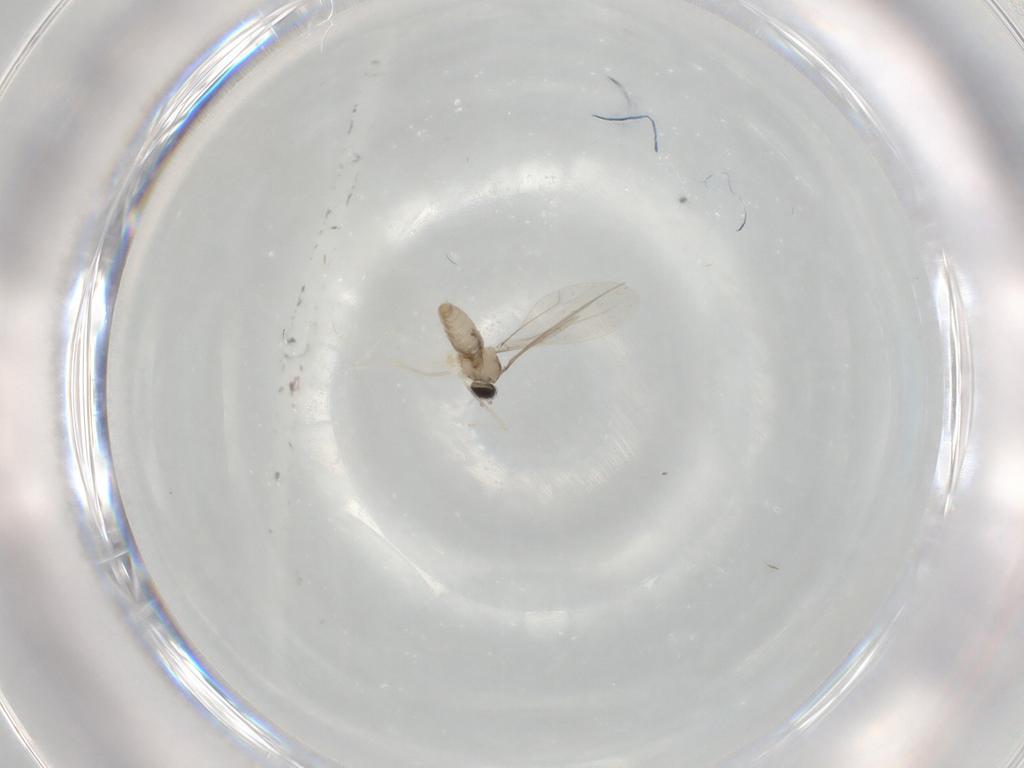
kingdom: Animalia
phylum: Arthropoda
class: Insecta
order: Diptera
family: Cecidomyiidae
